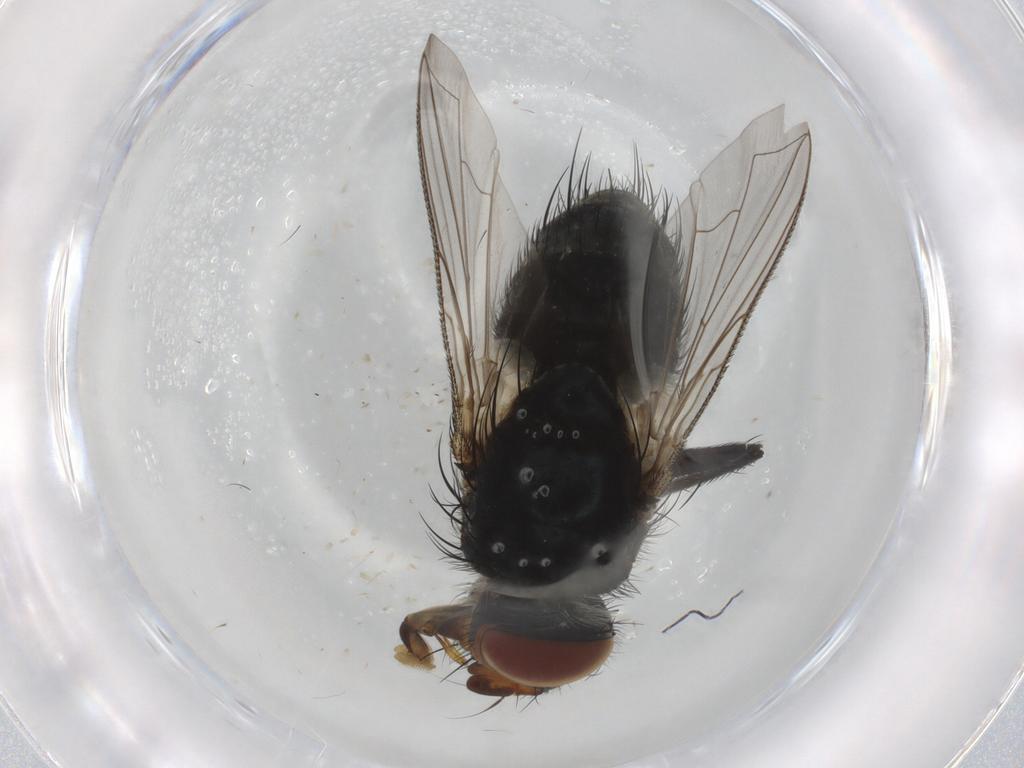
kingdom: Animalia
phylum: Arthropoda
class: Insecta
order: Diptera
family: Tachinidae
